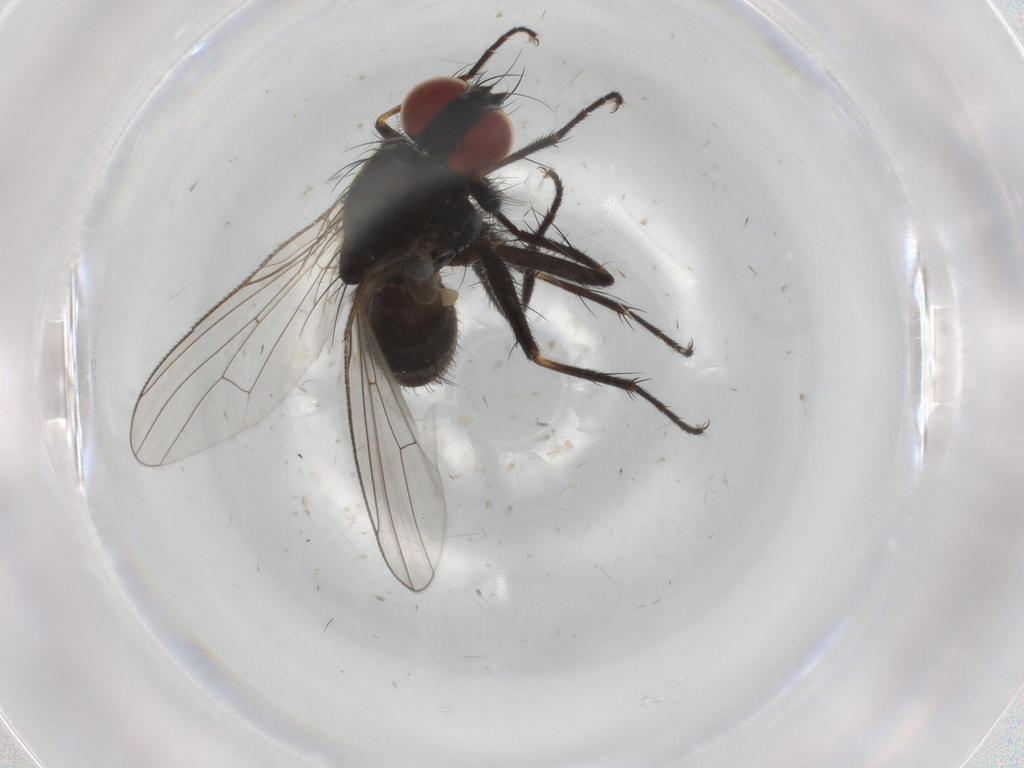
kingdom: Animalia
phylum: Arthropoda
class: Insecta
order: Diptera
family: Muscidae
